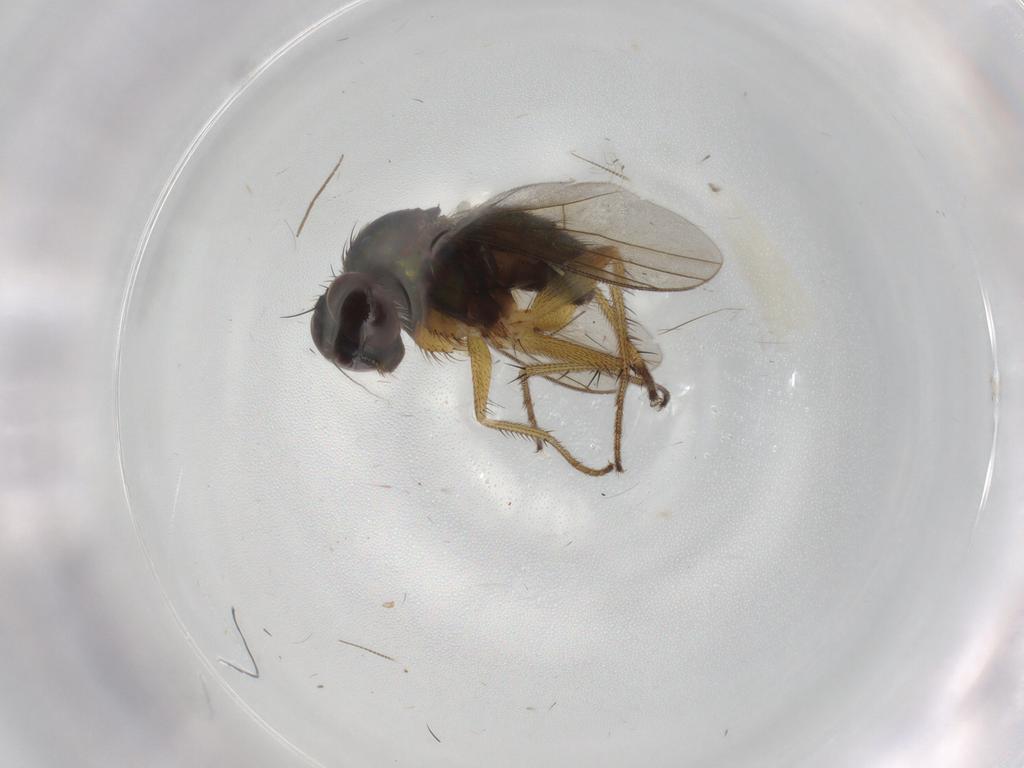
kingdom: Animalia
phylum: Arthropoda
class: Insecta
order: Diptera
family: Dolichopodidae
